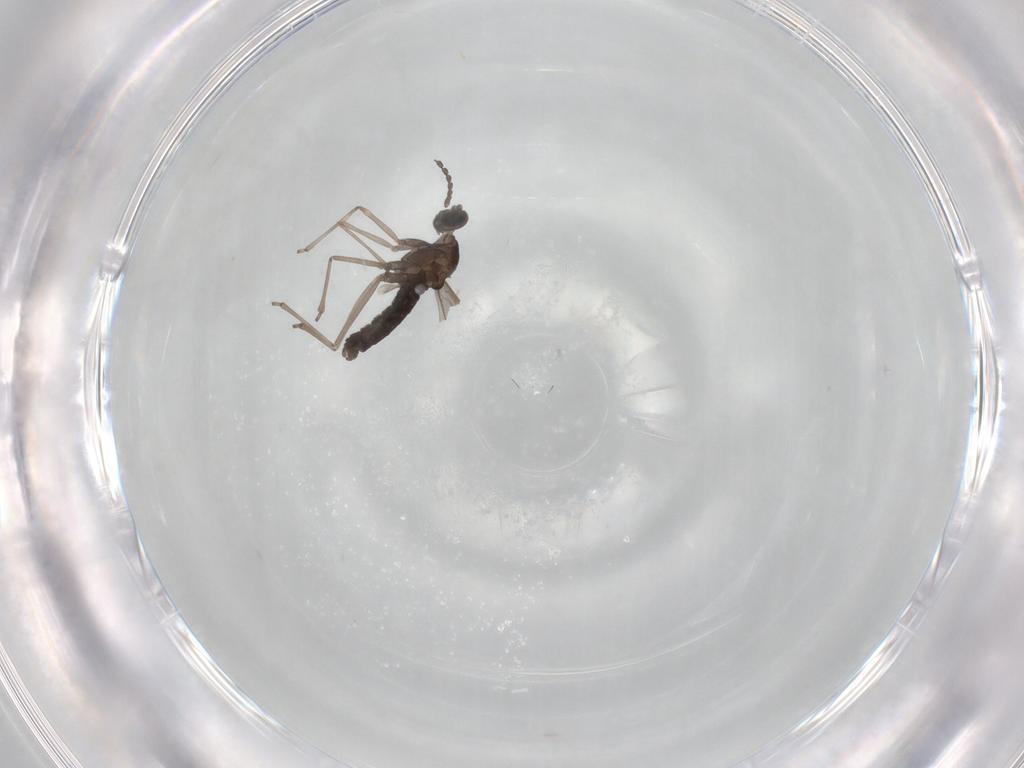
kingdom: Animalia
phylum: Arthropoda
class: Insecta
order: Diptera
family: Cecidomyiidae
